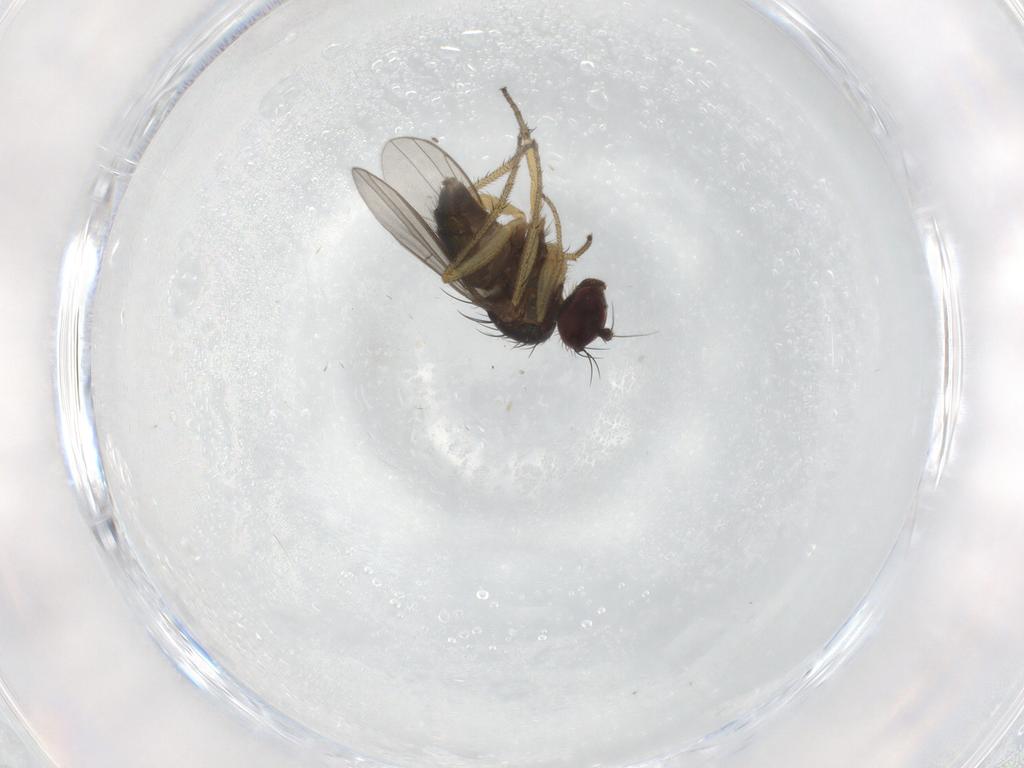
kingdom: Animalia
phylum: Arthropoda
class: Insecta
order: Diptera
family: Dolichopodidae
